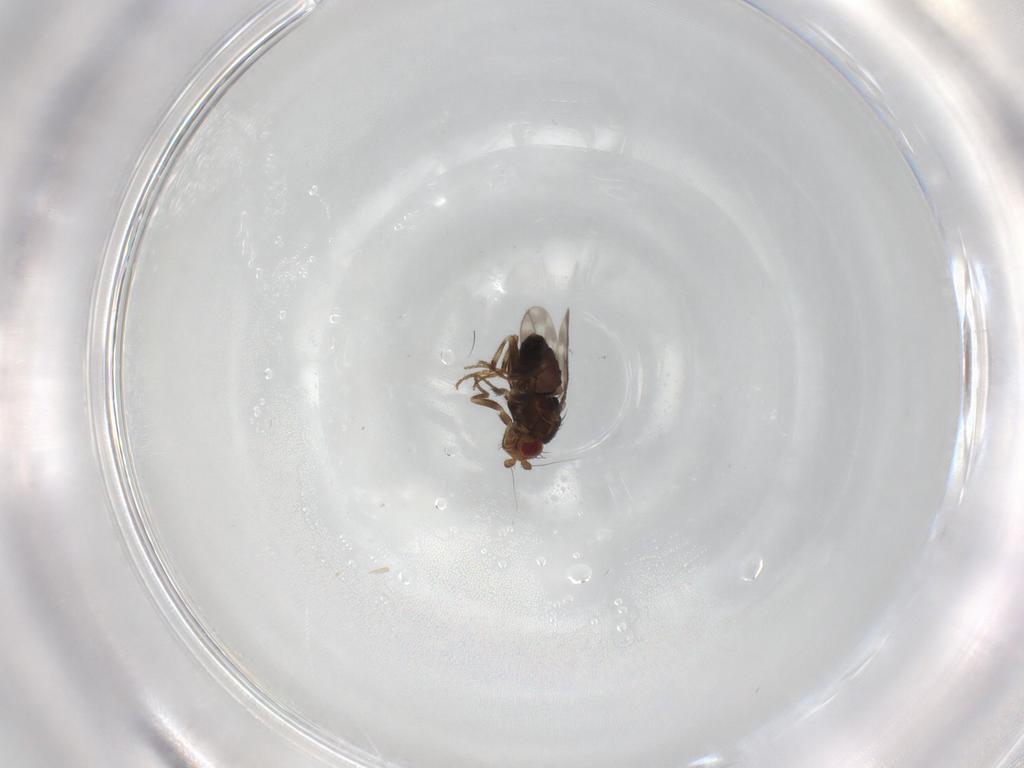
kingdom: Animalia
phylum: Arthropoda
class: Insecta
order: Diptera
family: Sphaeroceridae
